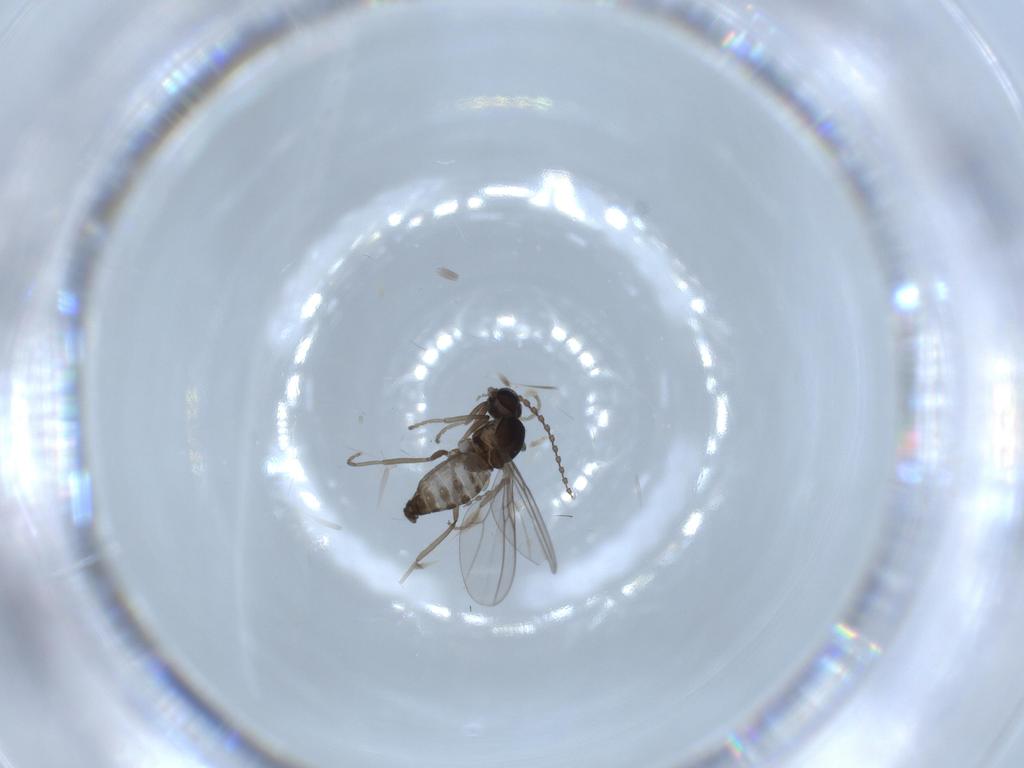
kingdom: Animalia
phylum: Arthropoda
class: Insecta
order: Diptera
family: Cecidomyiidae
